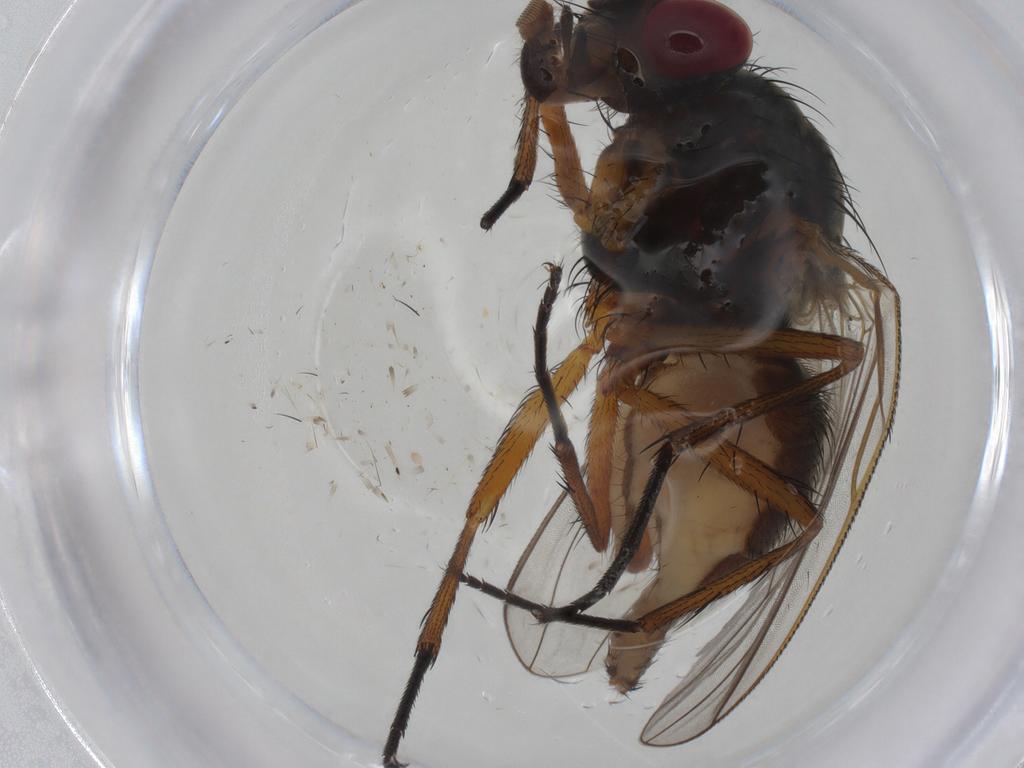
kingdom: Animalia
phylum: Arthropoda
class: Insecta
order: Diptera
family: Anthomyiidae
